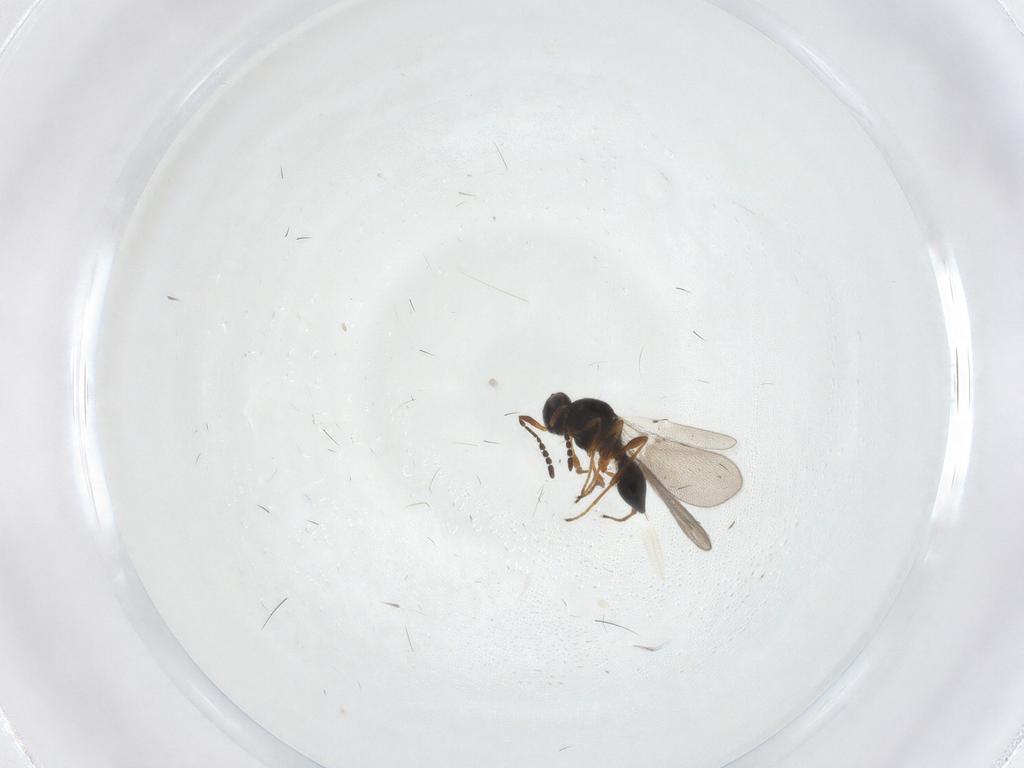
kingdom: Animalia
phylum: Arthropoda
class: Insecta
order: Hymenoptera
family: Platygastridae
